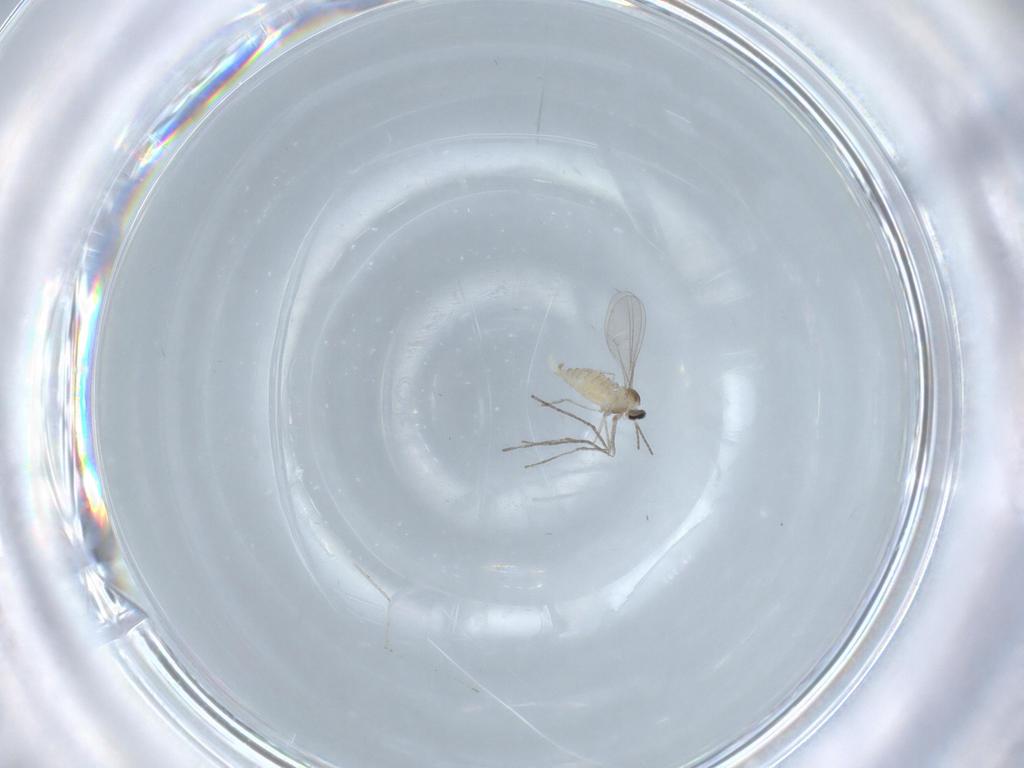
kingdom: Animalia
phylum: Arthropoda
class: Insecta
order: Diptera
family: Cecidomyiidae
